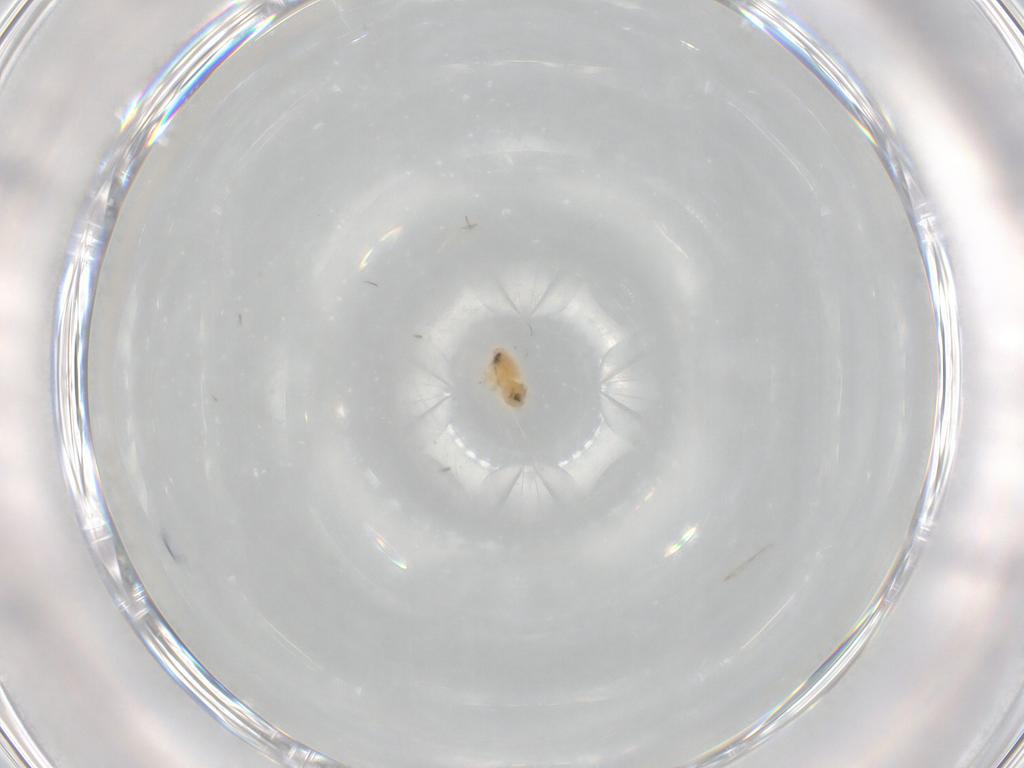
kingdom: Animalia
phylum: Arthropoda
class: Insecta
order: Hemiptera
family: Aleyrodidae
